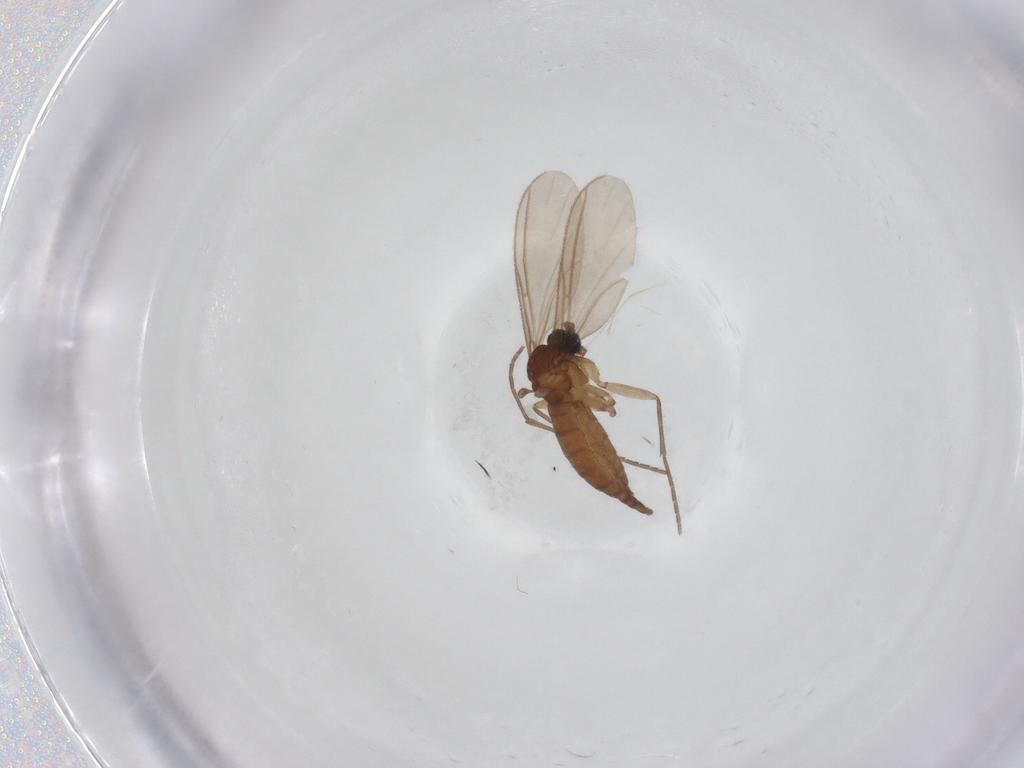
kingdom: Animalia
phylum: Arthropoda
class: Insecta
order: Diptera
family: Sciaridae
